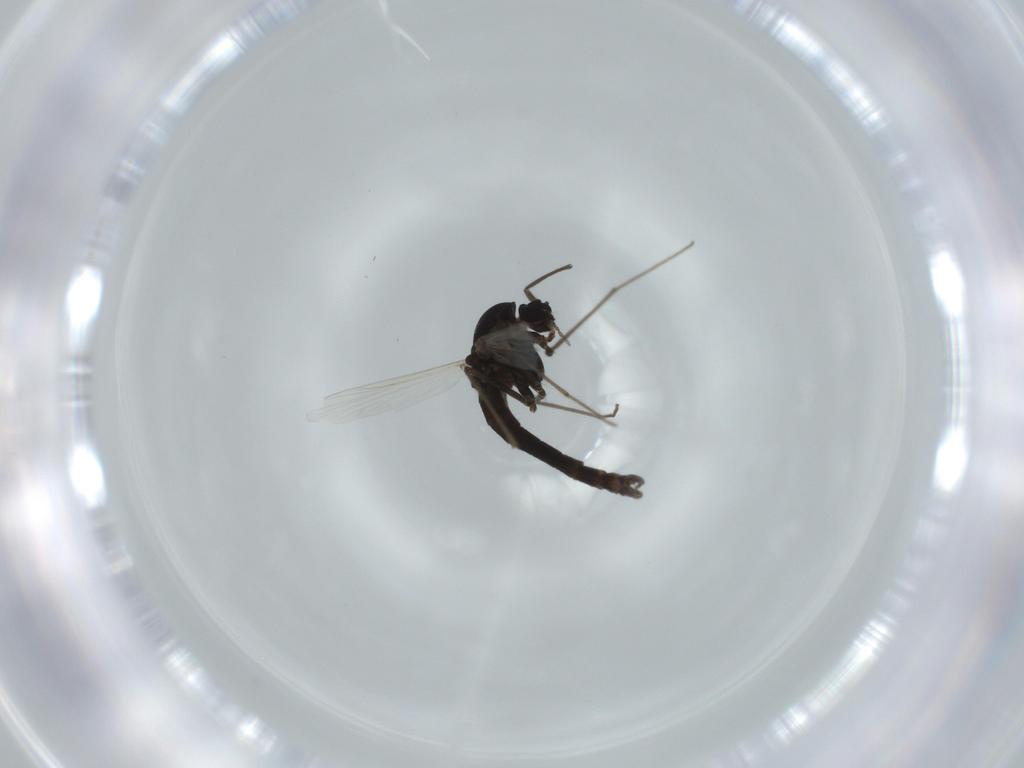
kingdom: Animalia
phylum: Arthropoda
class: Insecta
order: Diptera
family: Chironomidae
